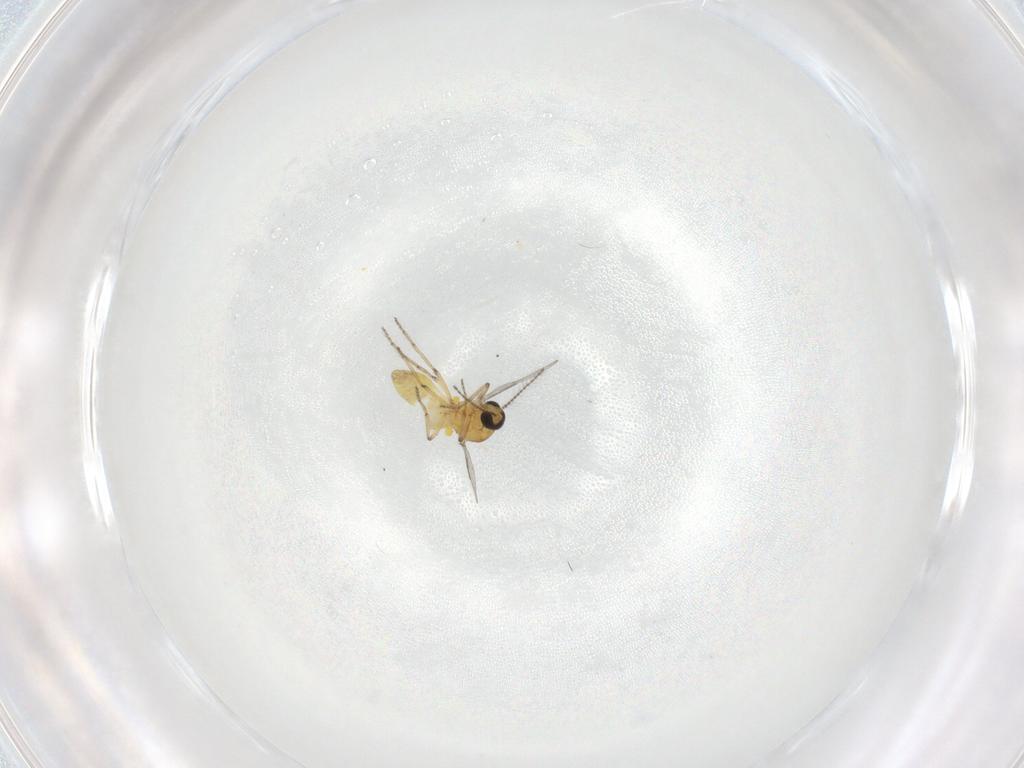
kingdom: Animalia
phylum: Arthropoda
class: Insecta
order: Diptera
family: Ceratopogonidae
